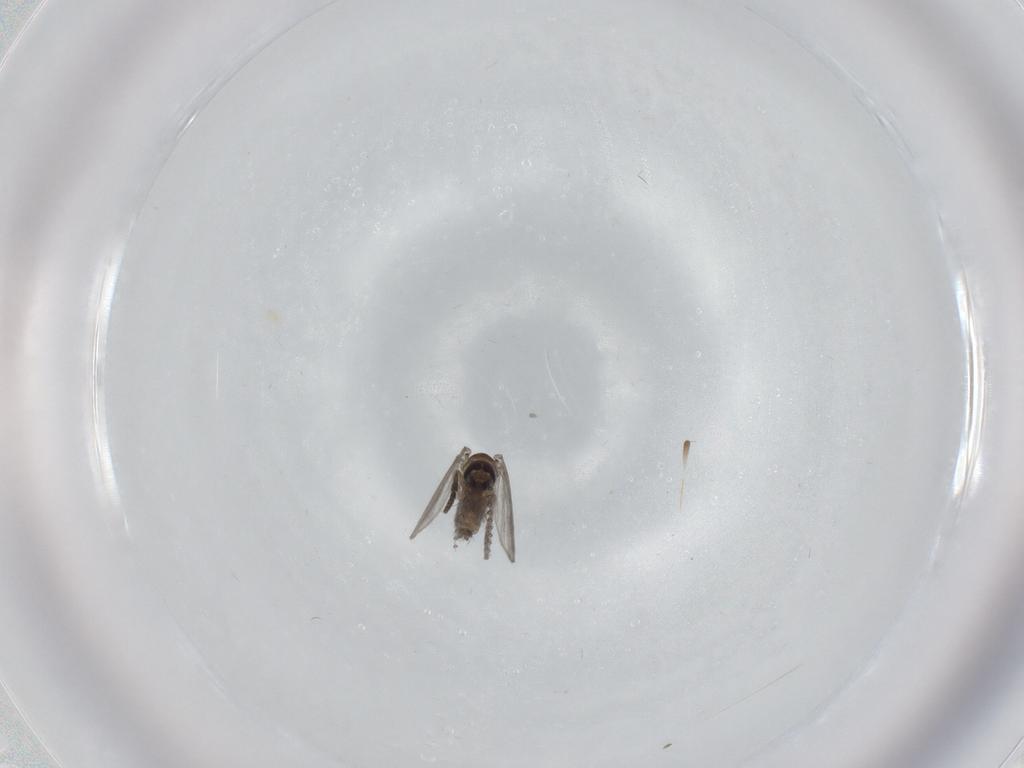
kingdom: Animalia
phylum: Arthropoda
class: Insecta
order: Diptera
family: Psychodidae
